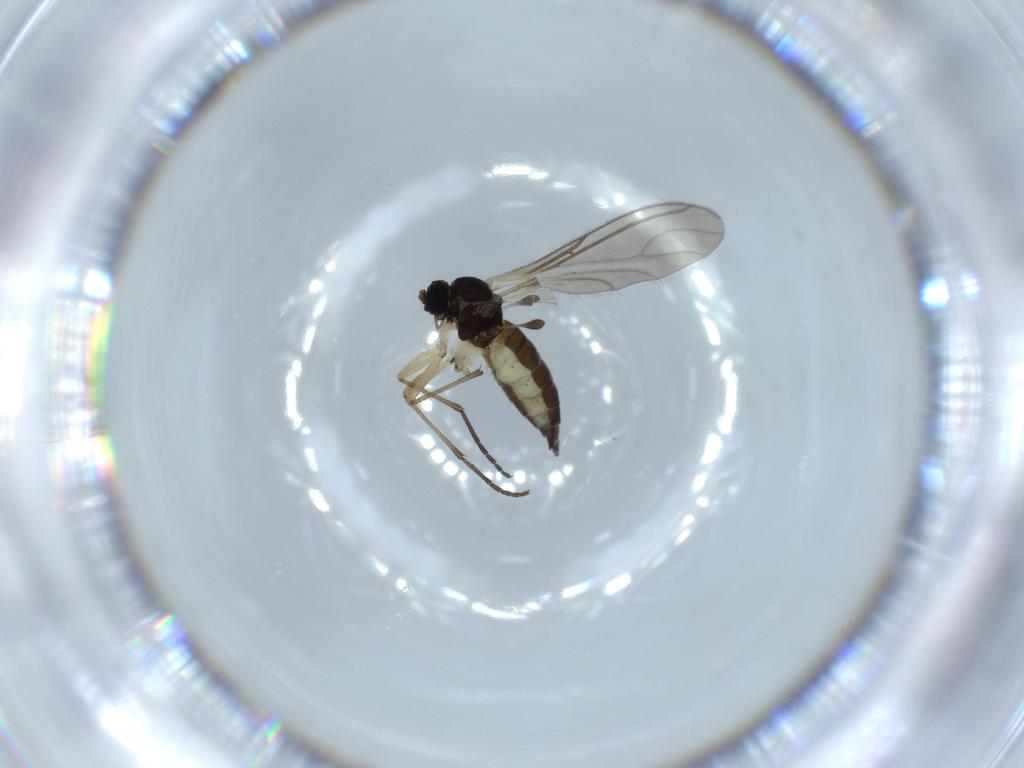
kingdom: Animalia
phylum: Arthropoda
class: Insecta
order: Diptera
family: Sciaridae
